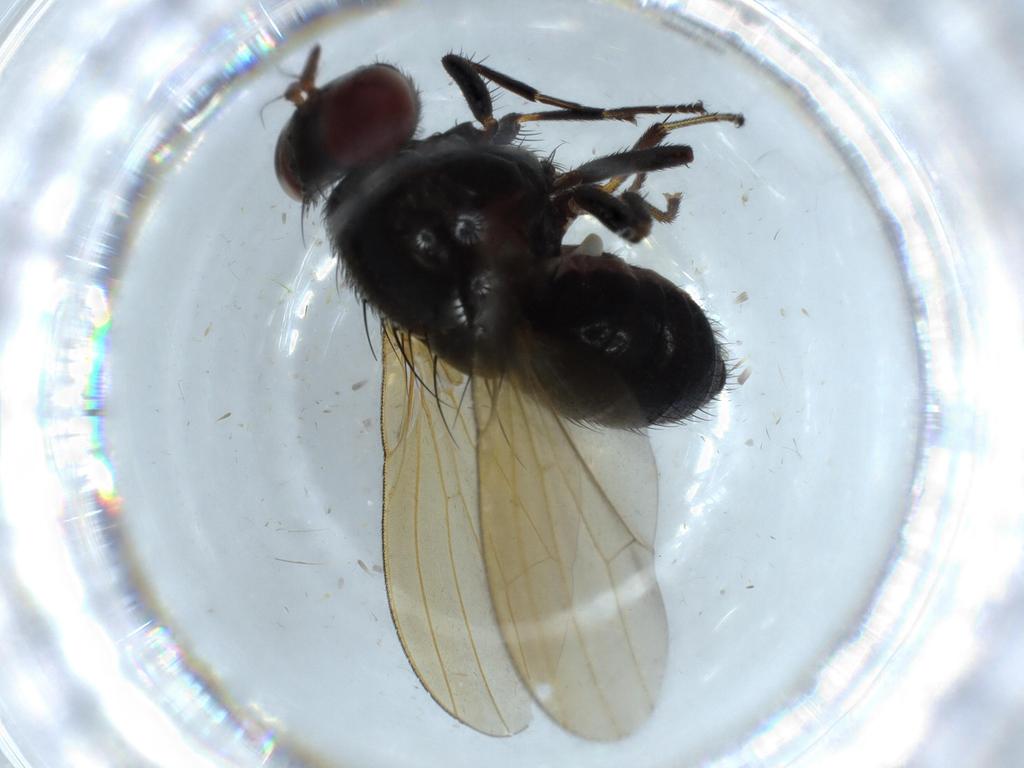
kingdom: Animalia
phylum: Arthropoda
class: Insecta
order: Diptera
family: Lauxaniidae
